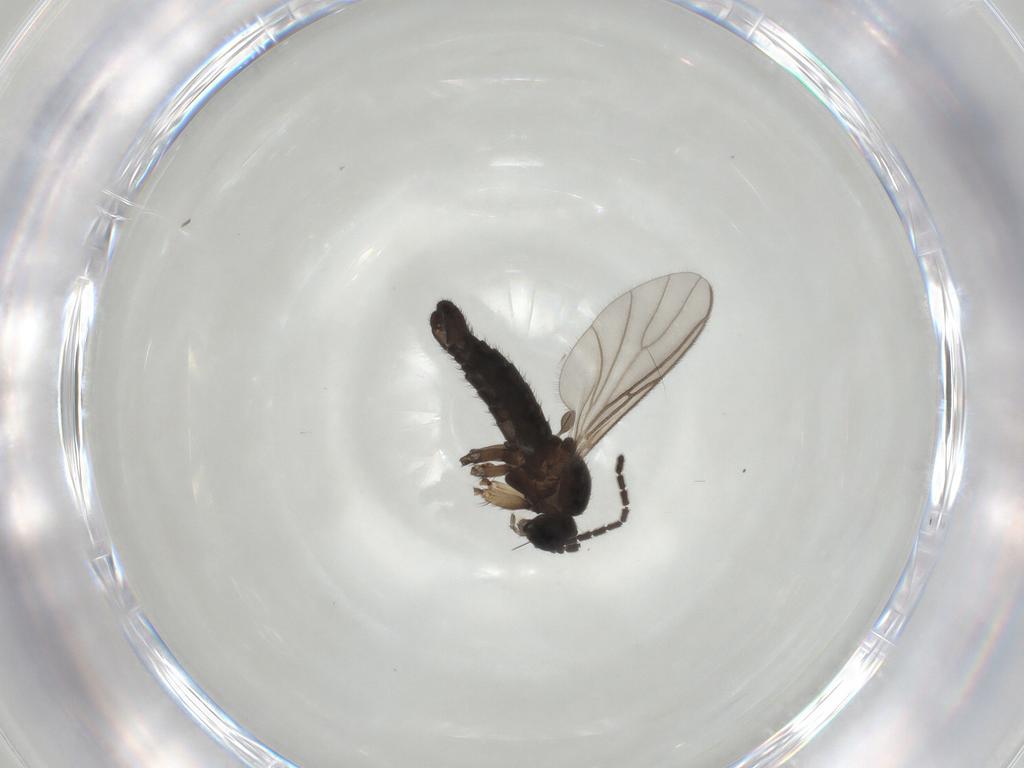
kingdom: Animalia
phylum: Arthropoda
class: Insecta
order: Diptera
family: Sciaridae
